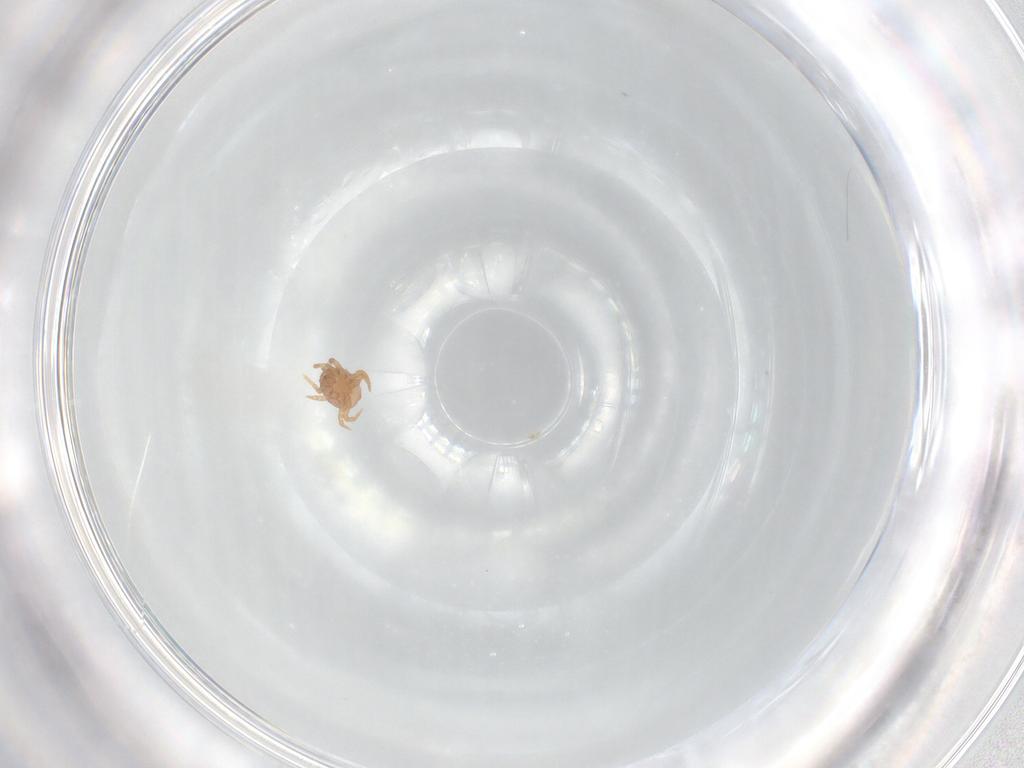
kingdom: Animalia
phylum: Arthropoda
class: Arachnida
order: Mesostigmata
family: Eviphididae
